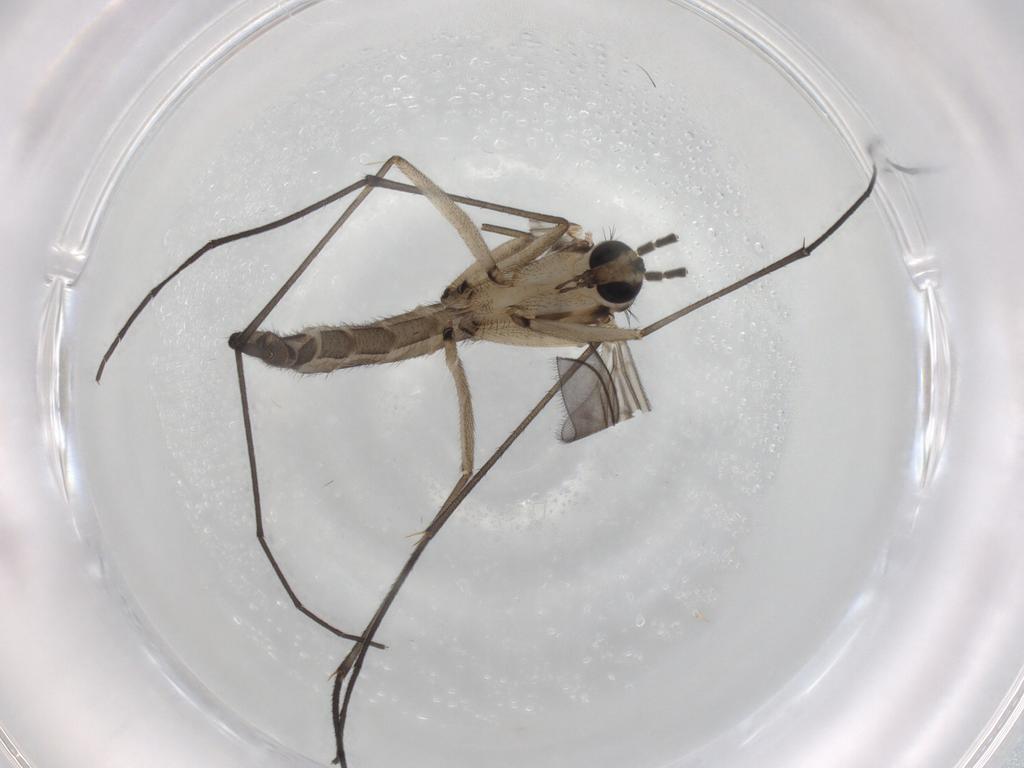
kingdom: Animalia
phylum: Arthropoda
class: Insecta
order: Diptera
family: Sciaridae
